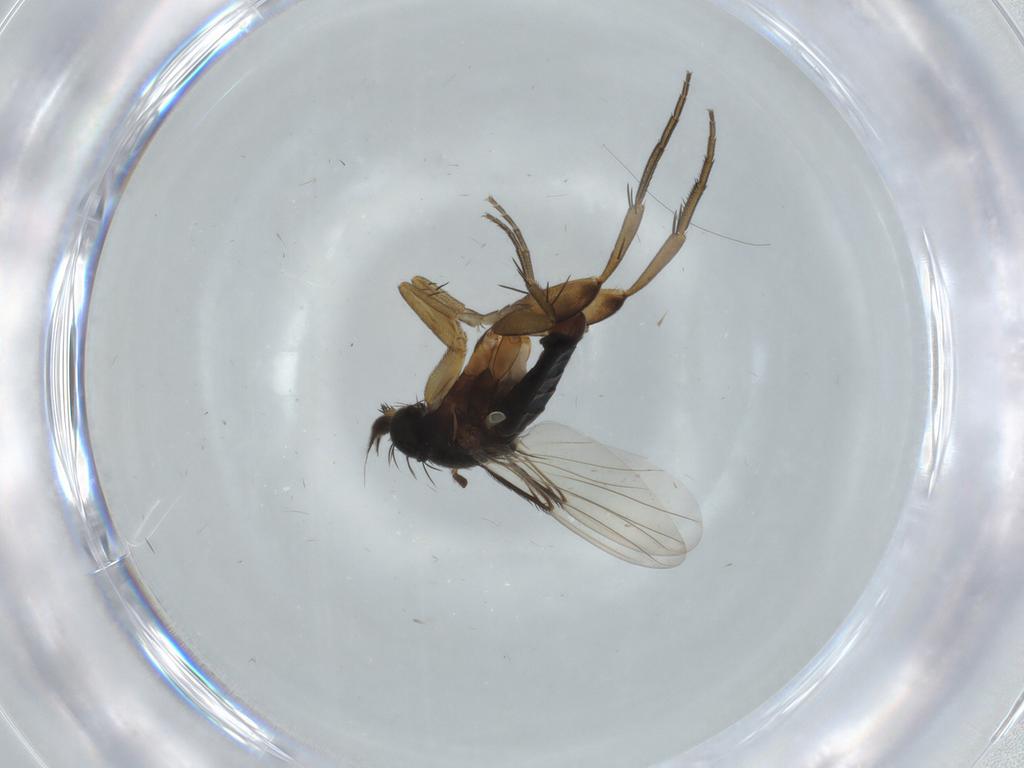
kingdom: Animalia
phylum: Arthropoda
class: Insecta
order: Diptera
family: Phoridae
